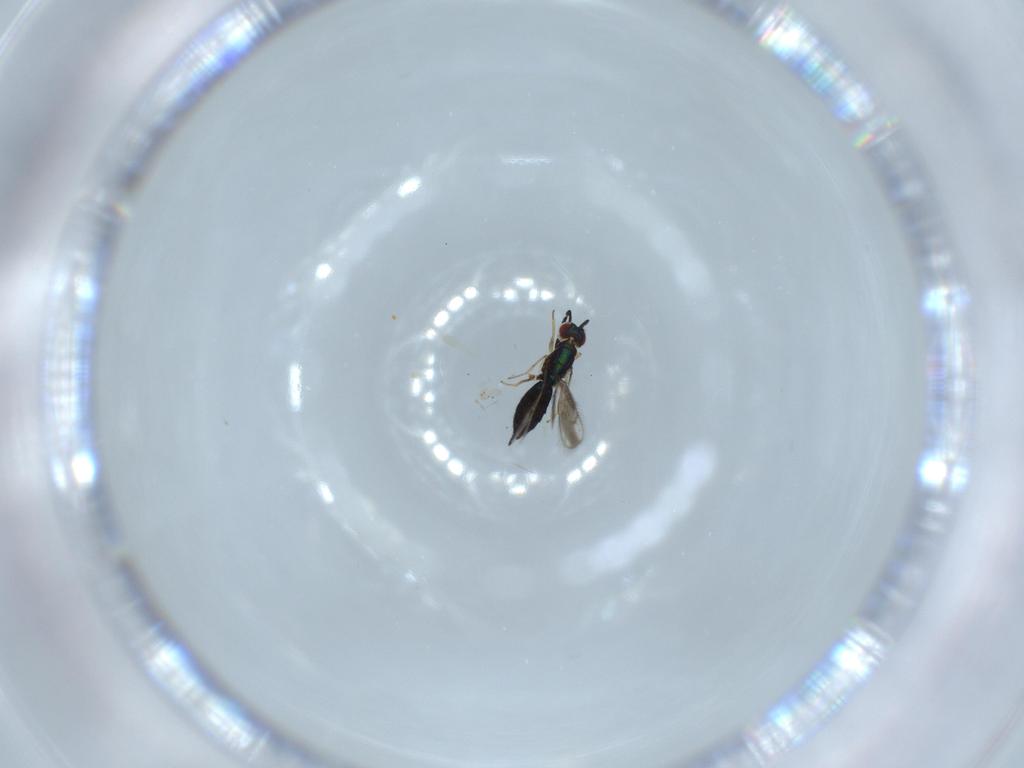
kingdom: Animalia
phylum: Arthropoda
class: Insecta
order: Hymenoptera
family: Pteromalidae
